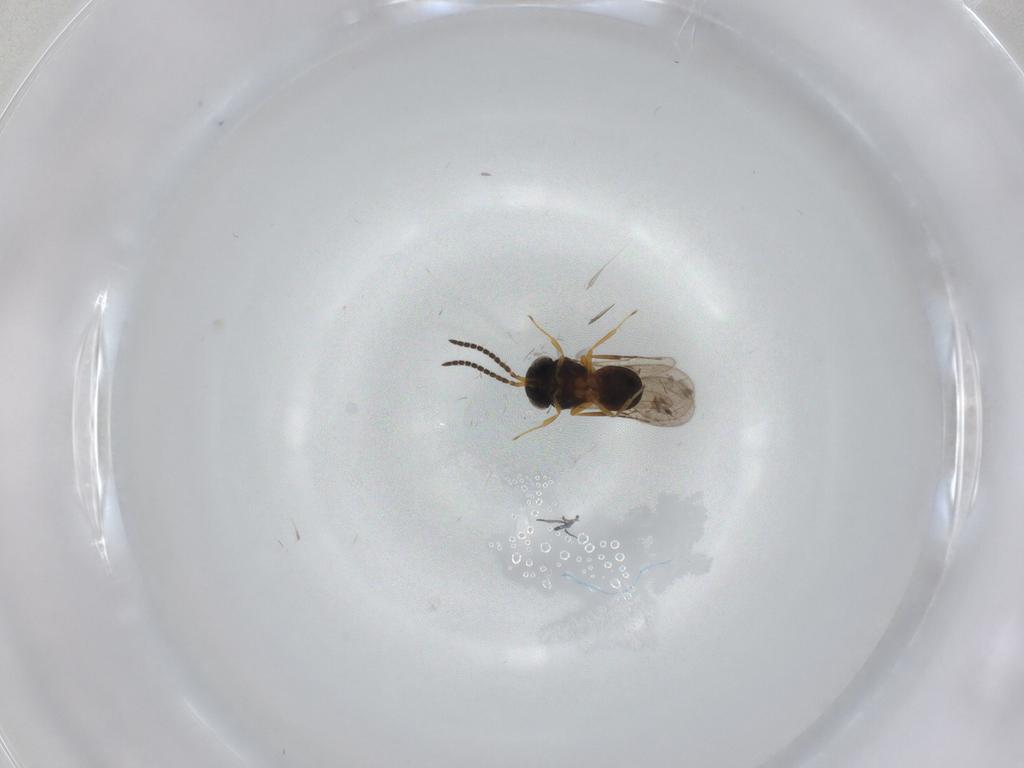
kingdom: Animalia
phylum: Arthropoda
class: Insecta
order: Hymenoptera
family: Scelionidae
